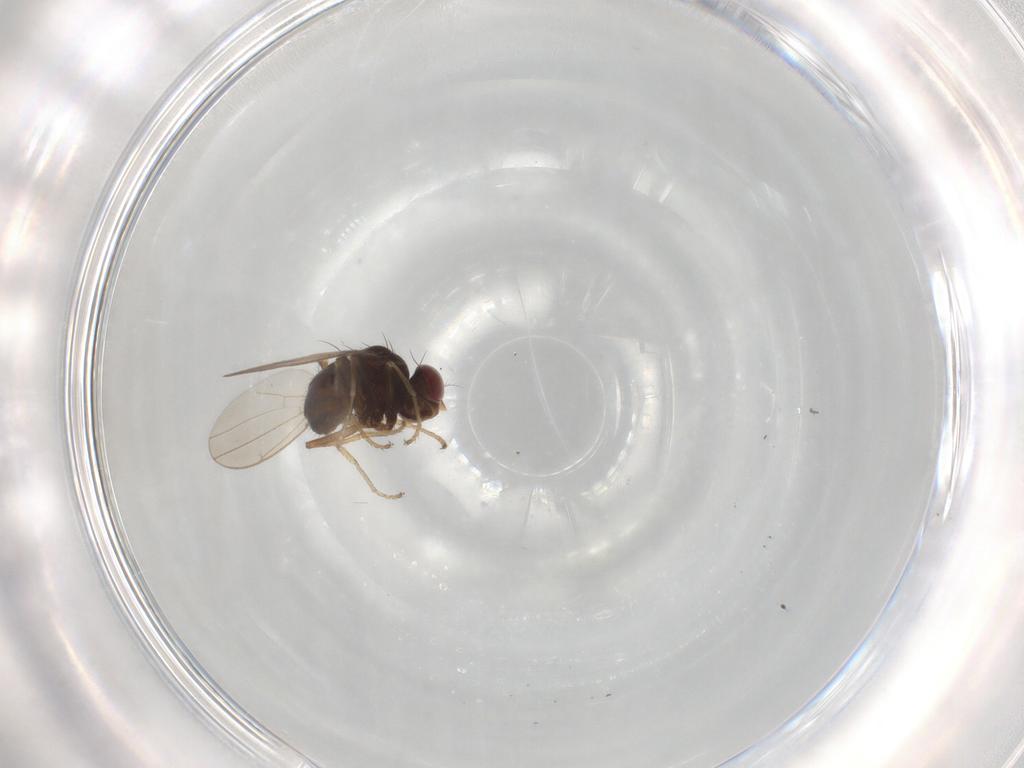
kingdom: Animalia
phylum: Arthropoda
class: Insecta
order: Diptera
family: Ephydridae
